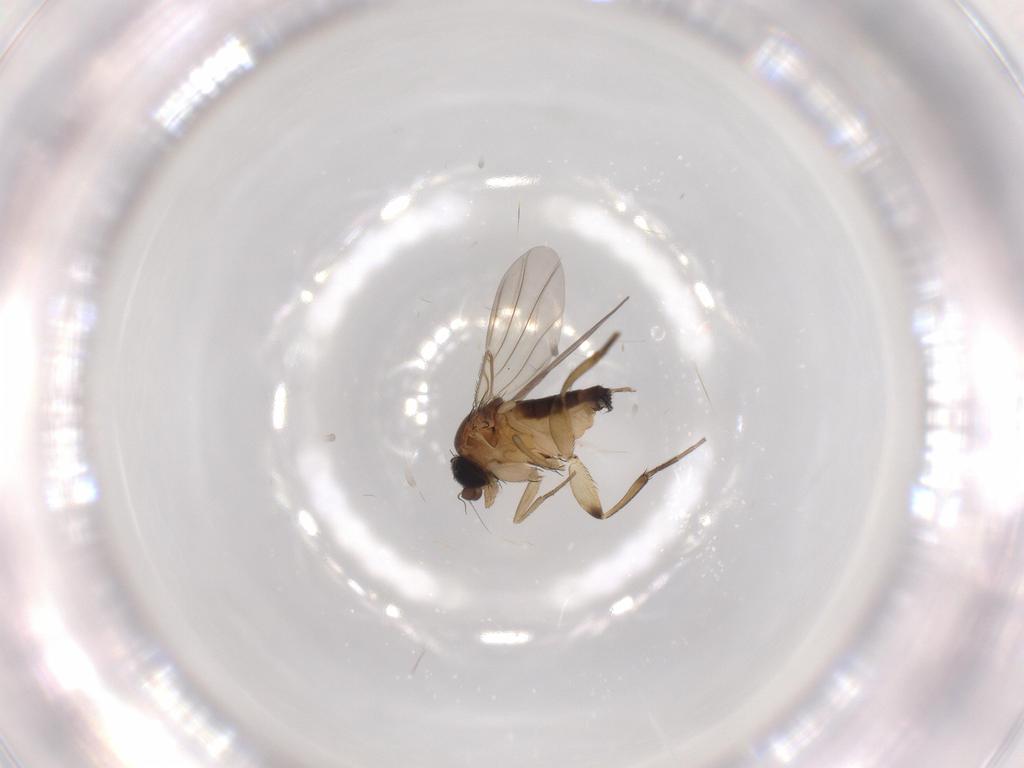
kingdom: Animalia
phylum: Arthropoda
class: Insecta
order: Diptera
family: Phoridae
